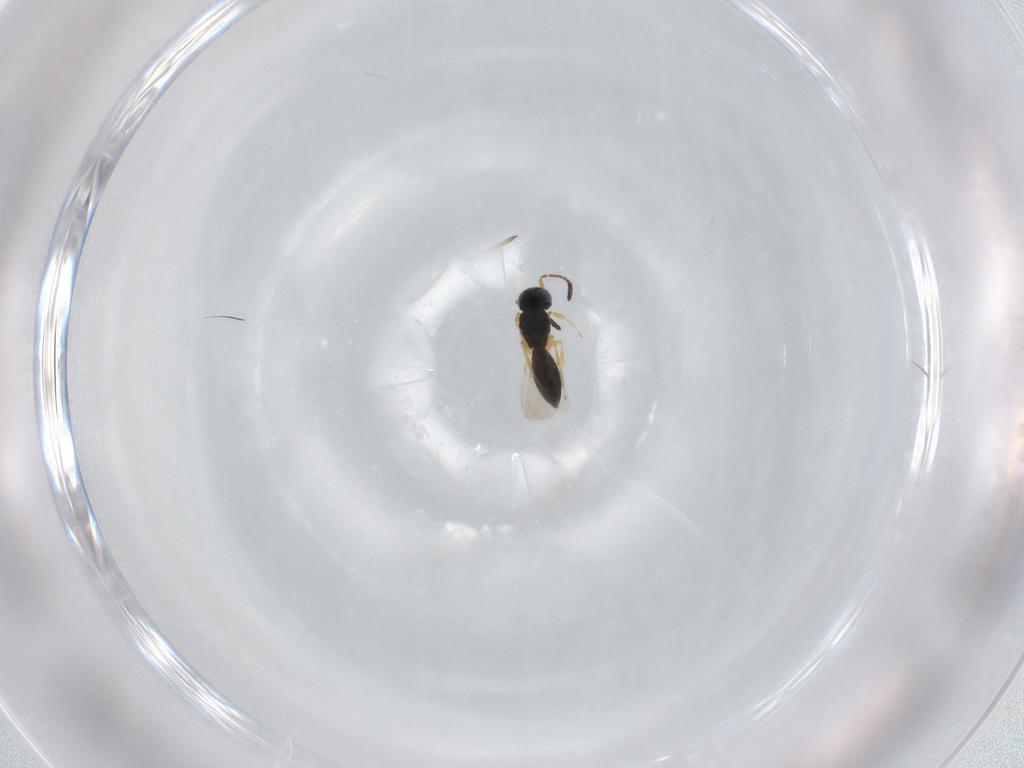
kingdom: Animalia
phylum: Arthropoda
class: Insecta
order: Hymenoptera
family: Scelionidae
